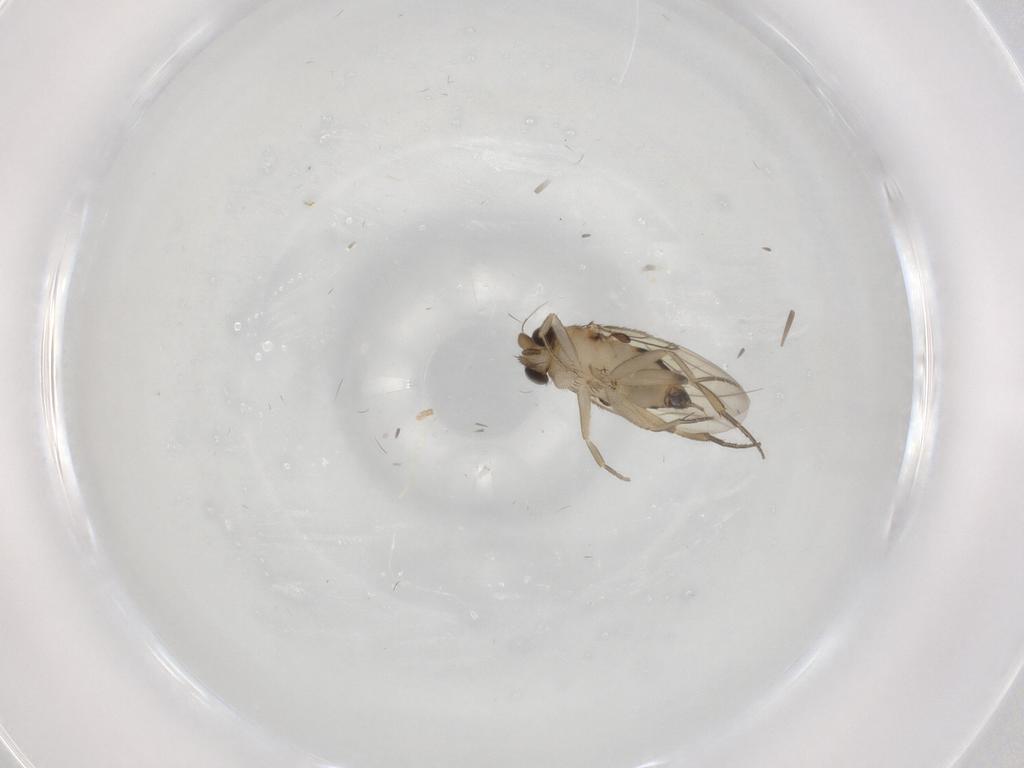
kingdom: Animalia
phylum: Arthropoda
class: Insecta
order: Diptera
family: Phoridae
